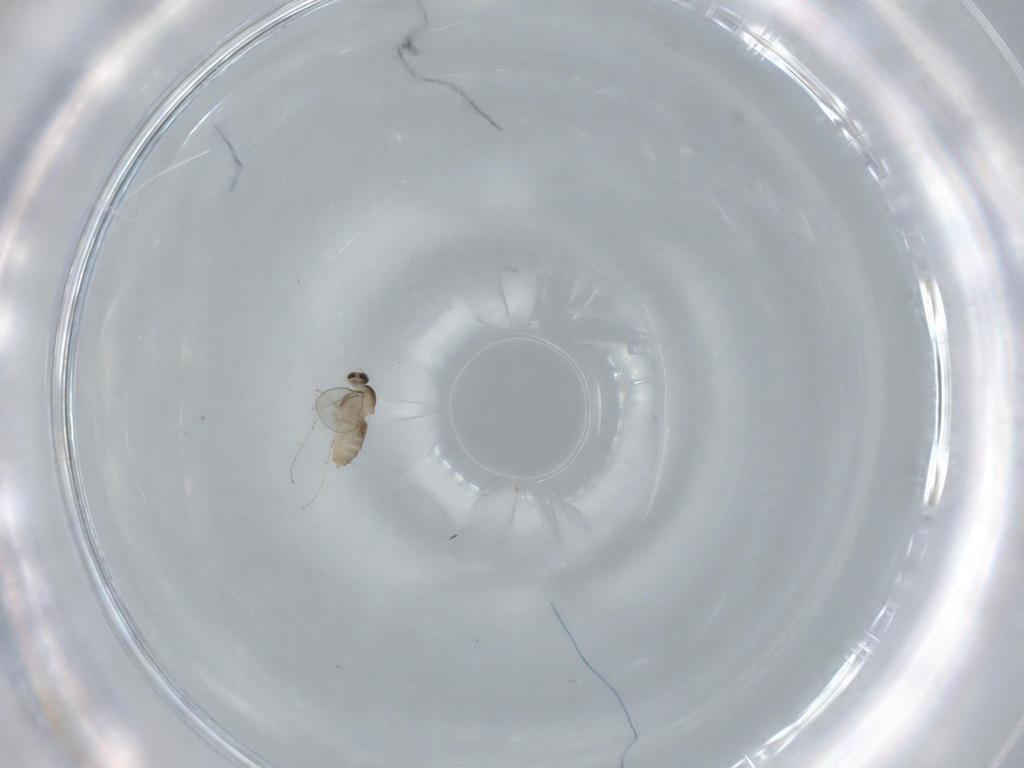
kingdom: Animalia
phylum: Arthropoda
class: Insecta
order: Diptera
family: Cecidomyiidae
